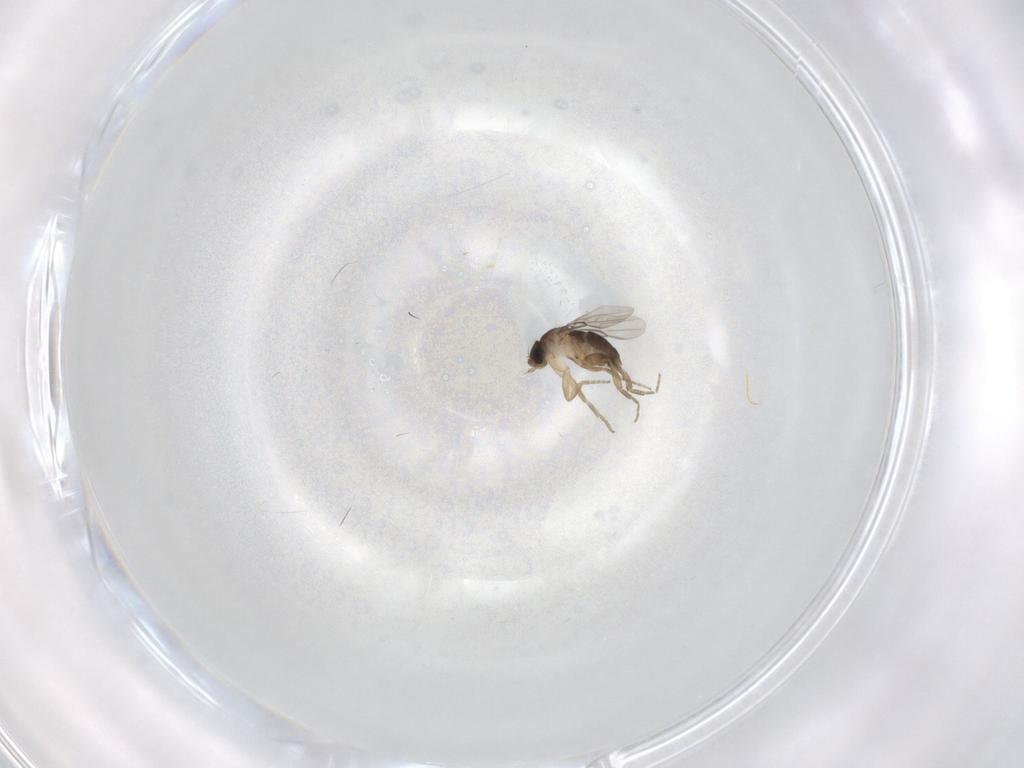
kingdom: Animalia
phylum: Arthropoda
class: Insecta
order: Diptera
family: Phoridae
